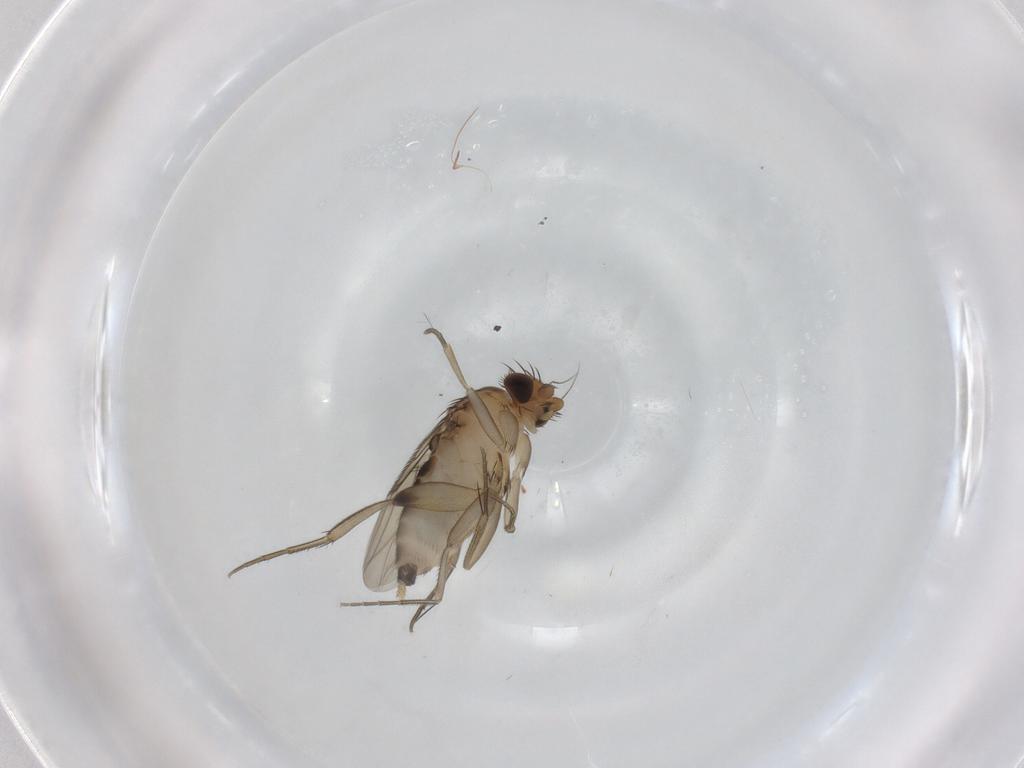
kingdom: Animalia
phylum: Arthropoda
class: Insecta
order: Diptera
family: Phoridae
